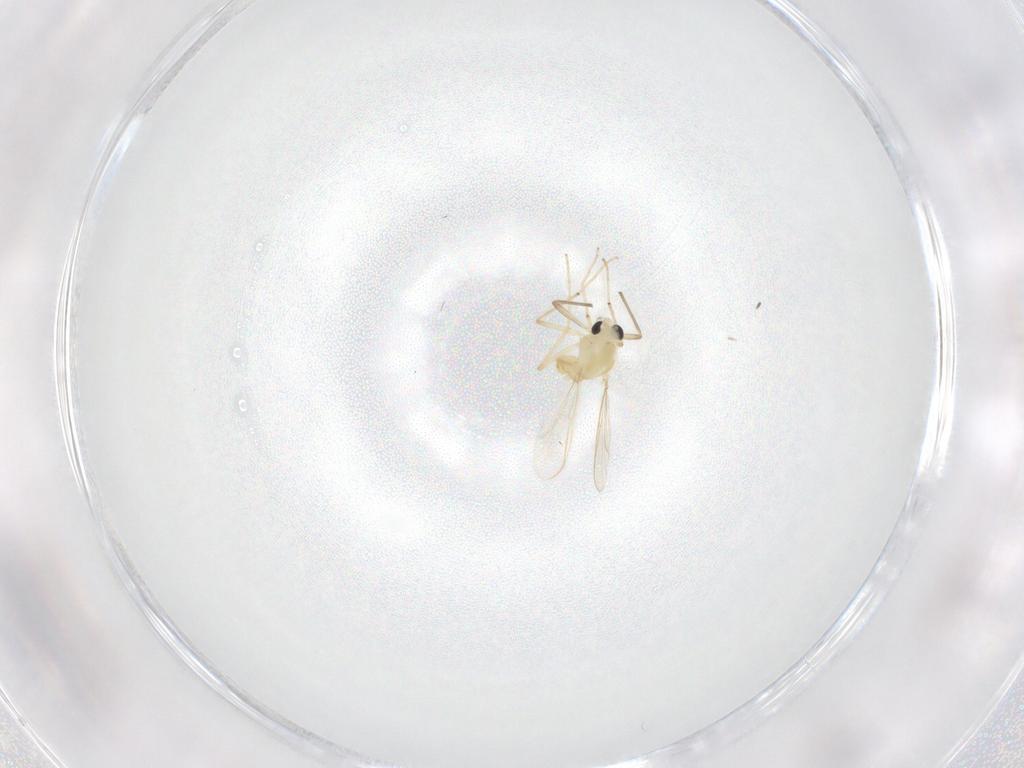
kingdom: Animalia
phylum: Arthropoda
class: Insecta
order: Diptera
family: Chironomidae
